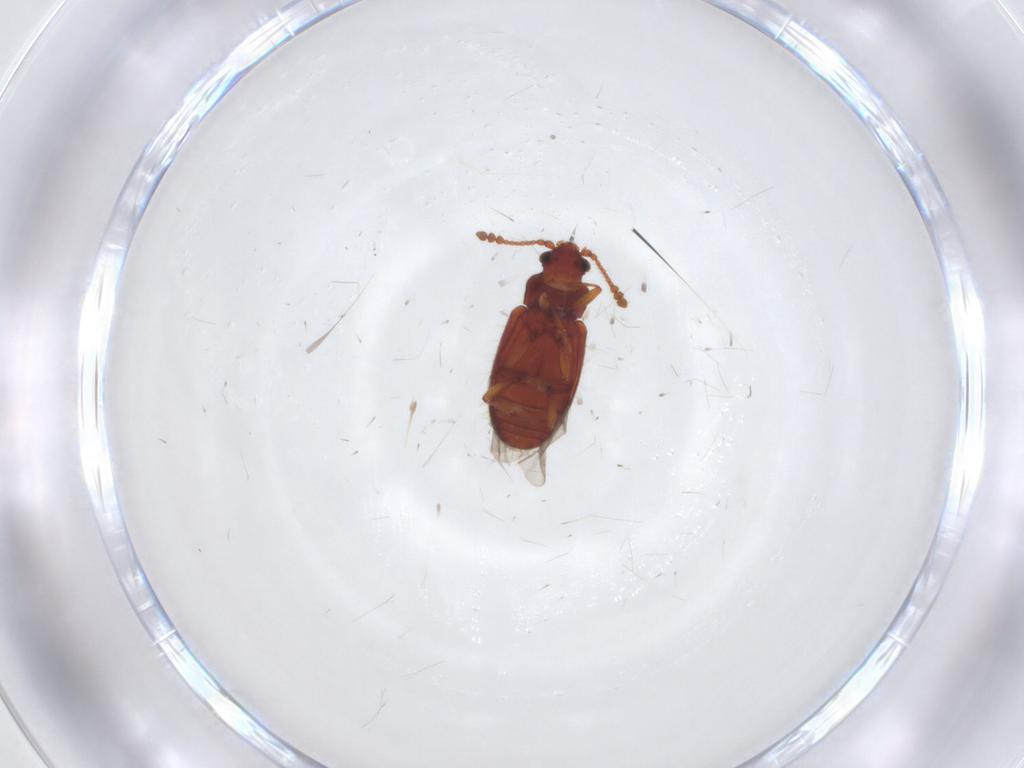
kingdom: Animalia
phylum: Arthropoda
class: Insecta
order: Coleoptera
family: Cryptophagidae
